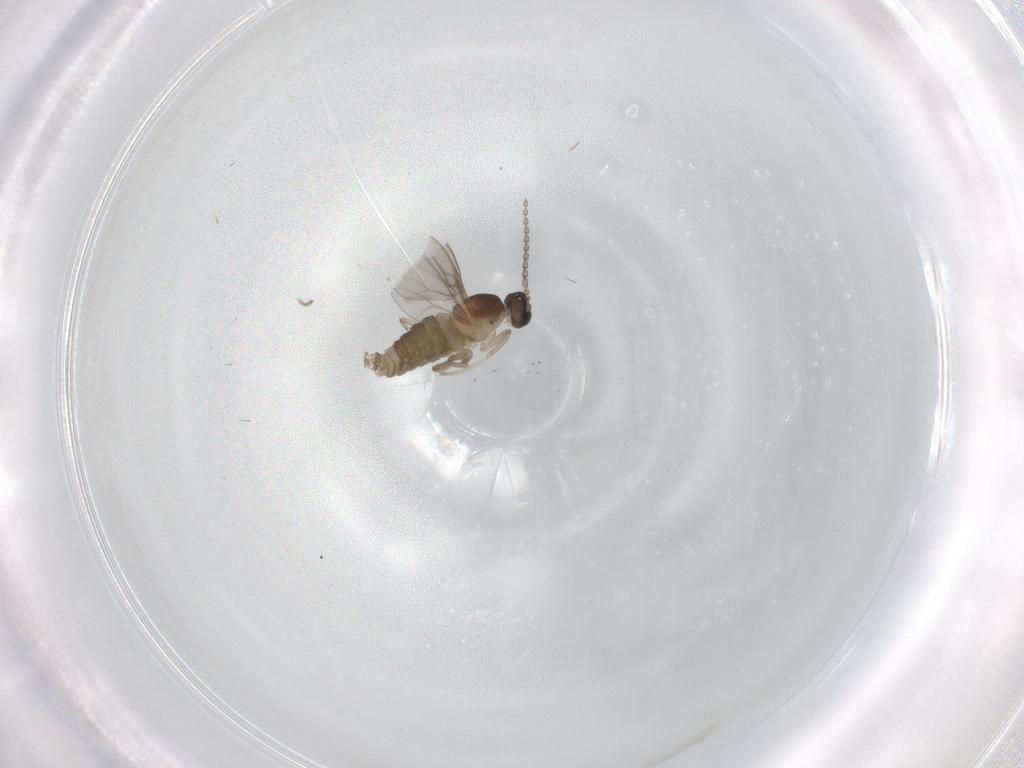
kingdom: Animalia
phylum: Arthropoda
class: Insecta
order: Diptera
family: Cecidomyiidae
